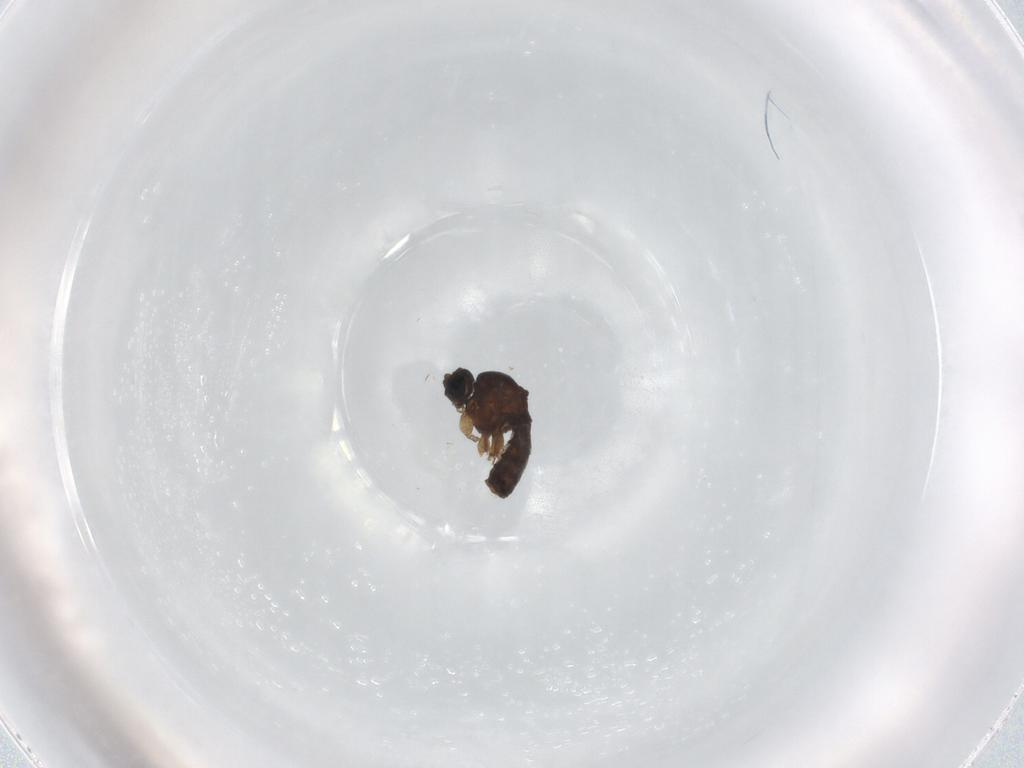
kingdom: Animalia
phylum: Arthropoda
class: Insecta
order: Diptera
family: Sciaridae
